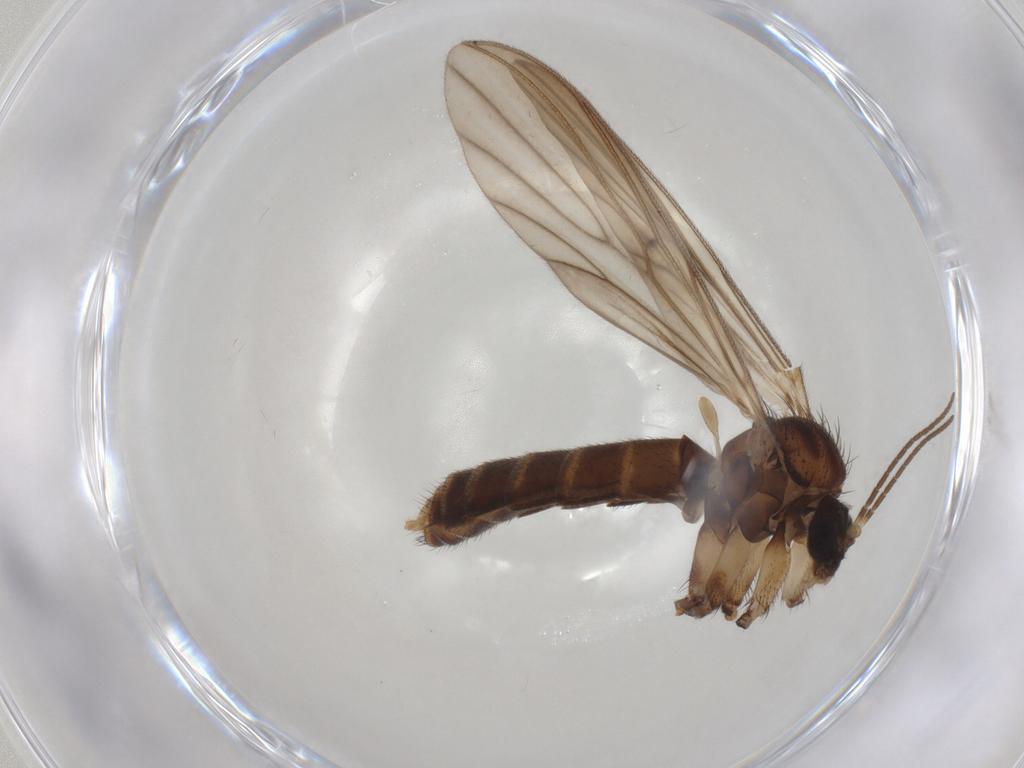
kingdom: Animalia
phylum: Arthropoda
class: Insecta
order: Diptera
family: Mycetophilidae
